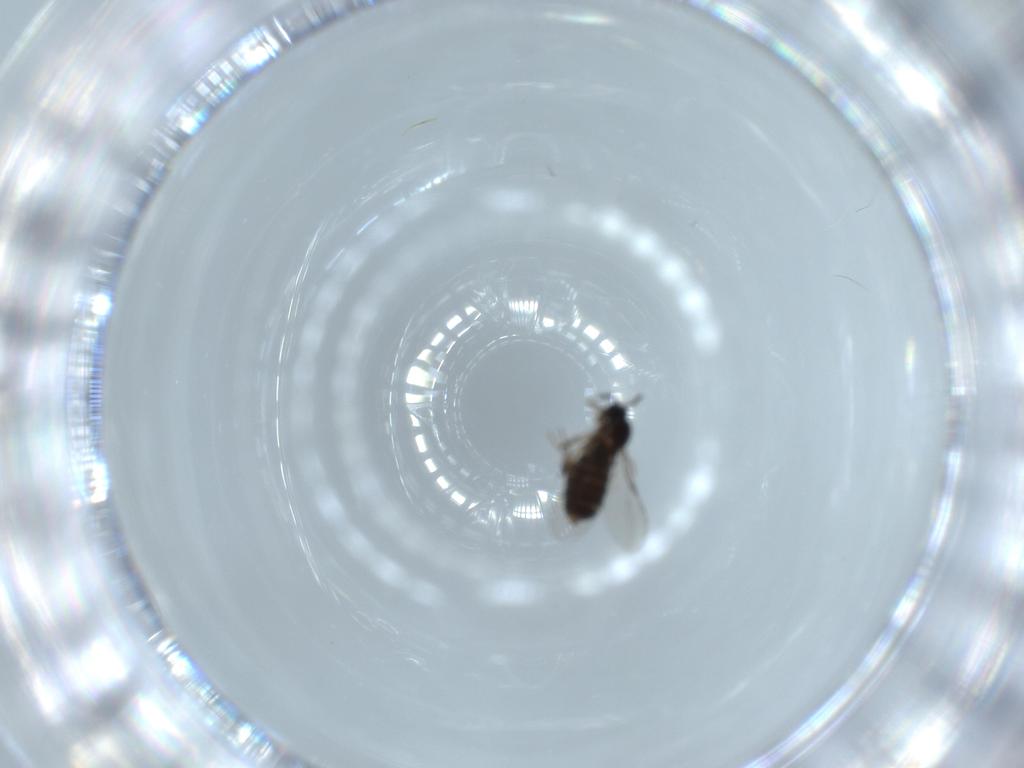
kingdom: Animalia
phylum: Arthropoda
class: Insecta
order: Diptera
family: Scatopsidae
